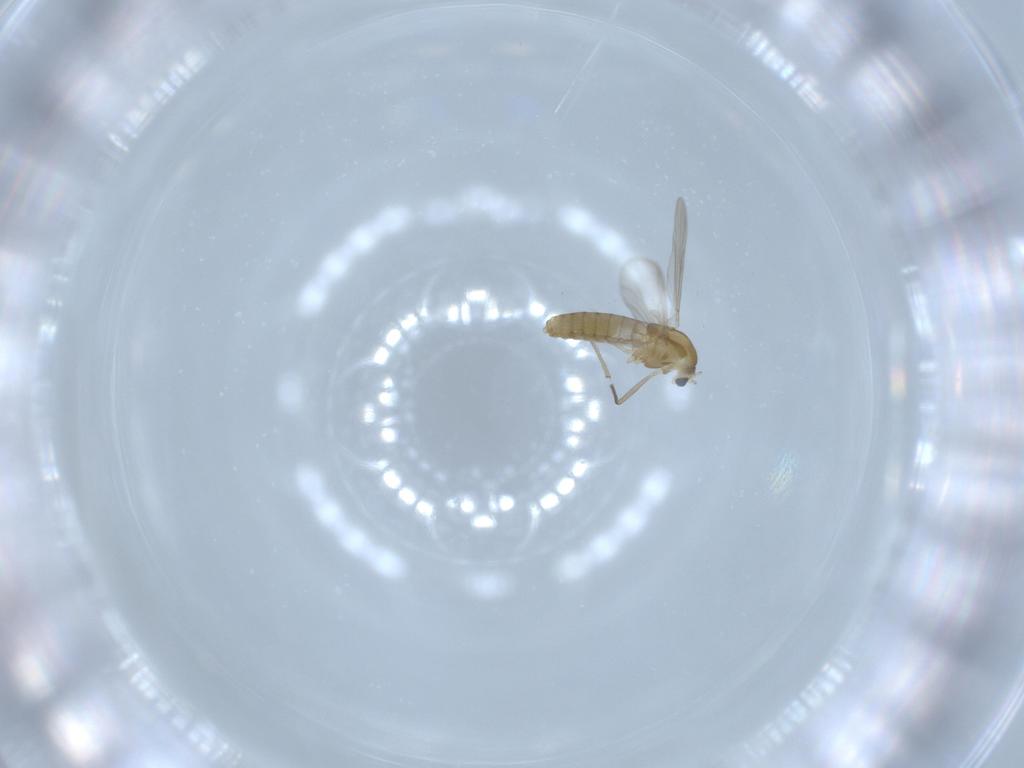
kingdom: Animalia
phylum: Arthropoda
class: Insecta
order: Diptera
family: Chironomidae
